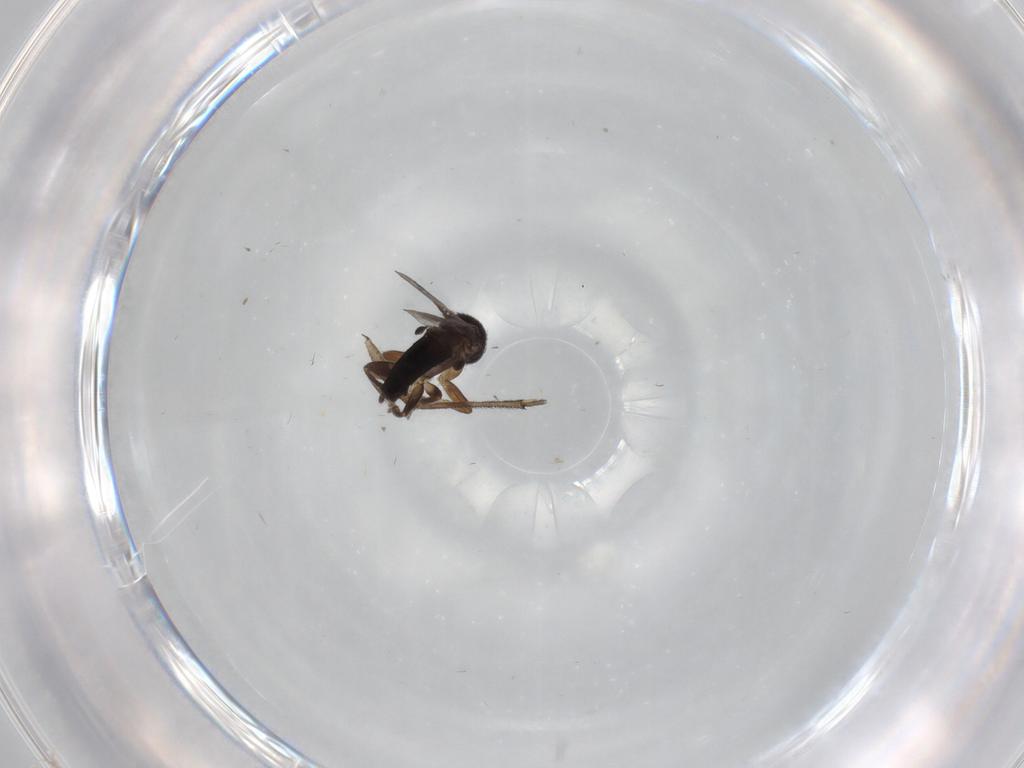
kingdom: Animalia
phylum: Arthropoda
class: Insecta
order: Diptera
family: Sciaridae
